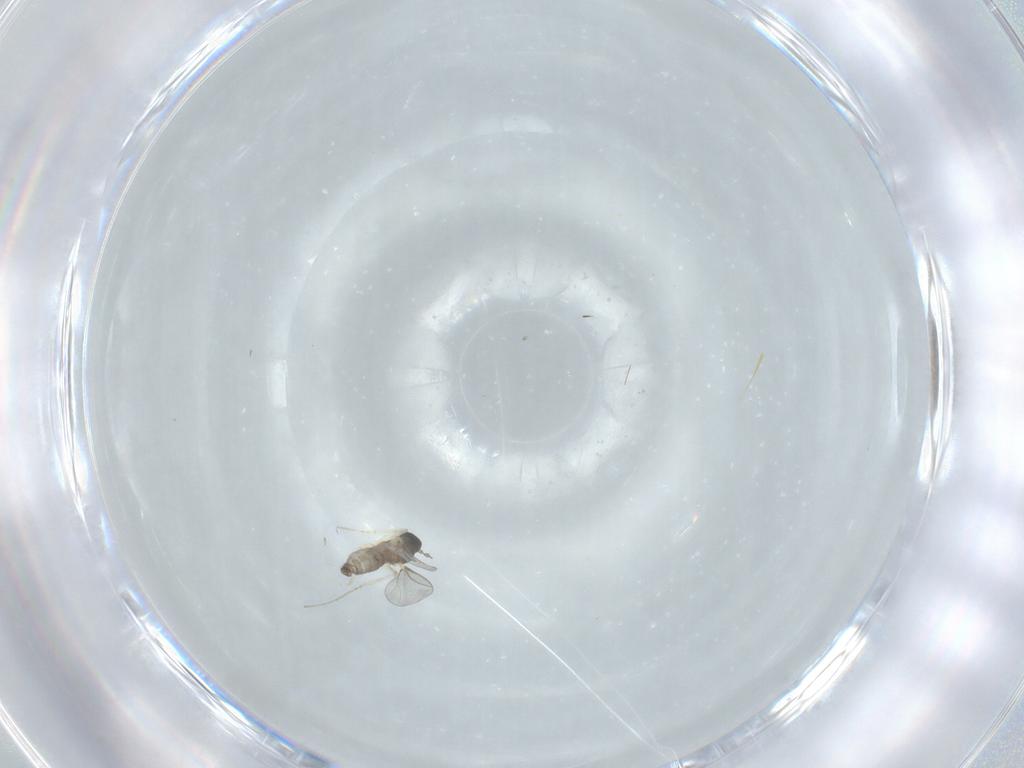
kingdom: Animalia
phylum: Arthropoda
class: Insecta
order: Diptera
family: Cecidomyiidae
